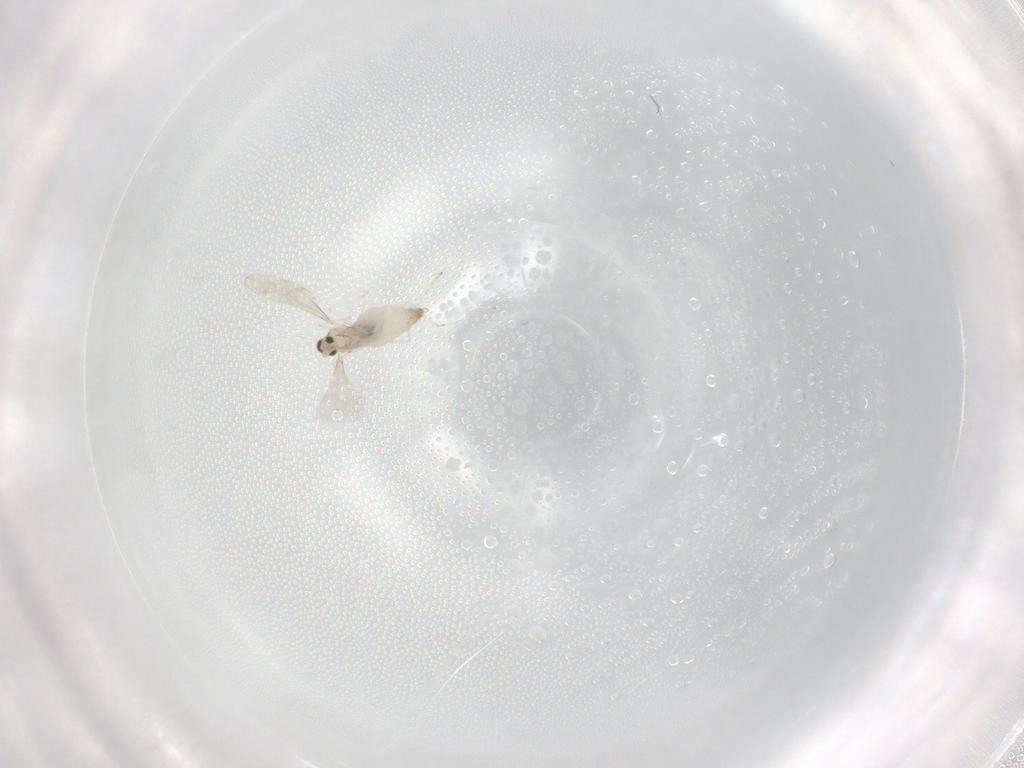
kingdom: Animalia
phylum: Arthropoda
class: Insecta
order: Diptera
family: Cecidomyiidae
